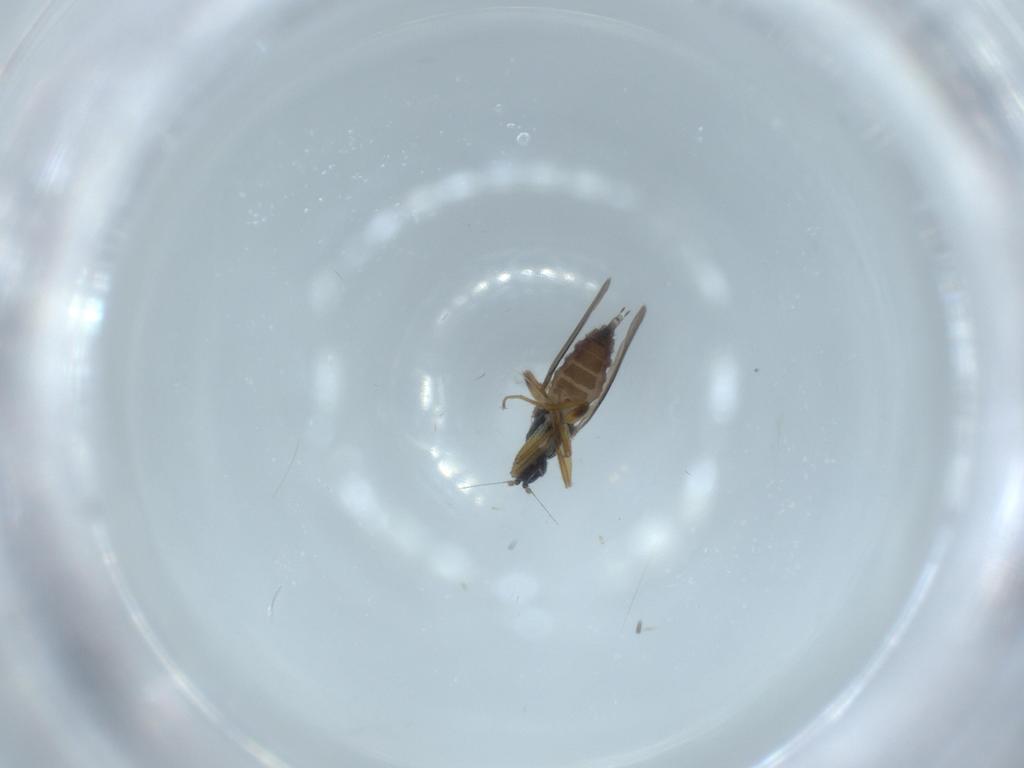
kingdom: Animalia
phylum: Arthropoda
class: Insecta
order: Diptera
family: Hybotidae
